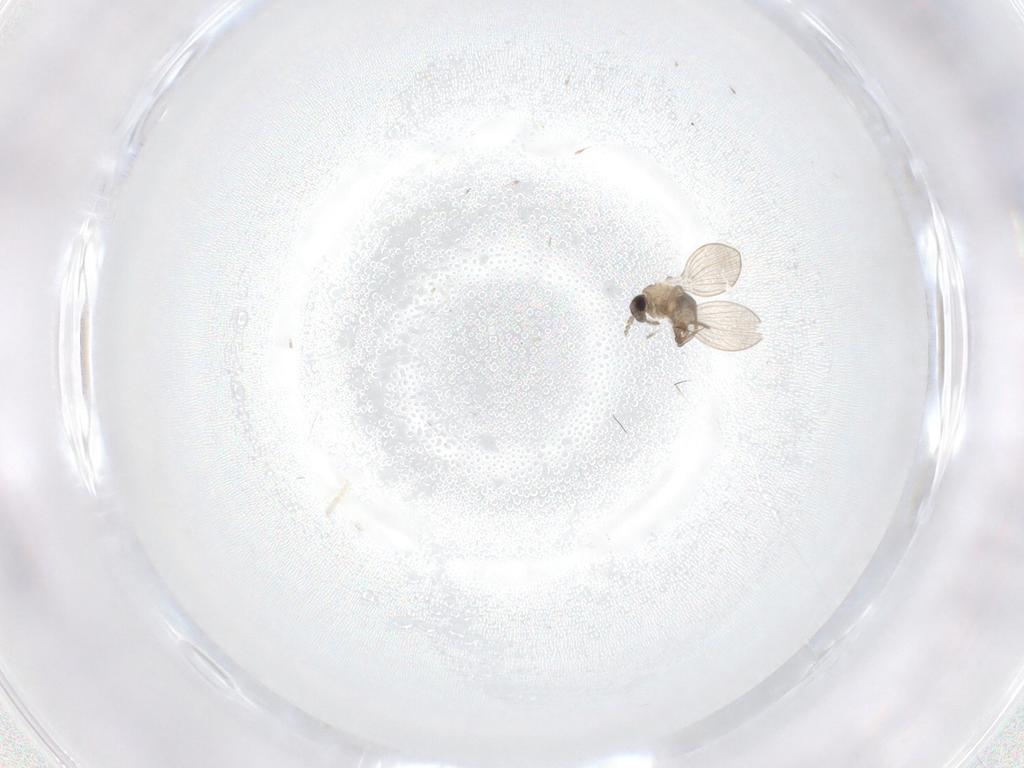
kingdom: Animalia
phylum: Arthropoda
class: Insecta
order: Diptera
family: Psychodidae
